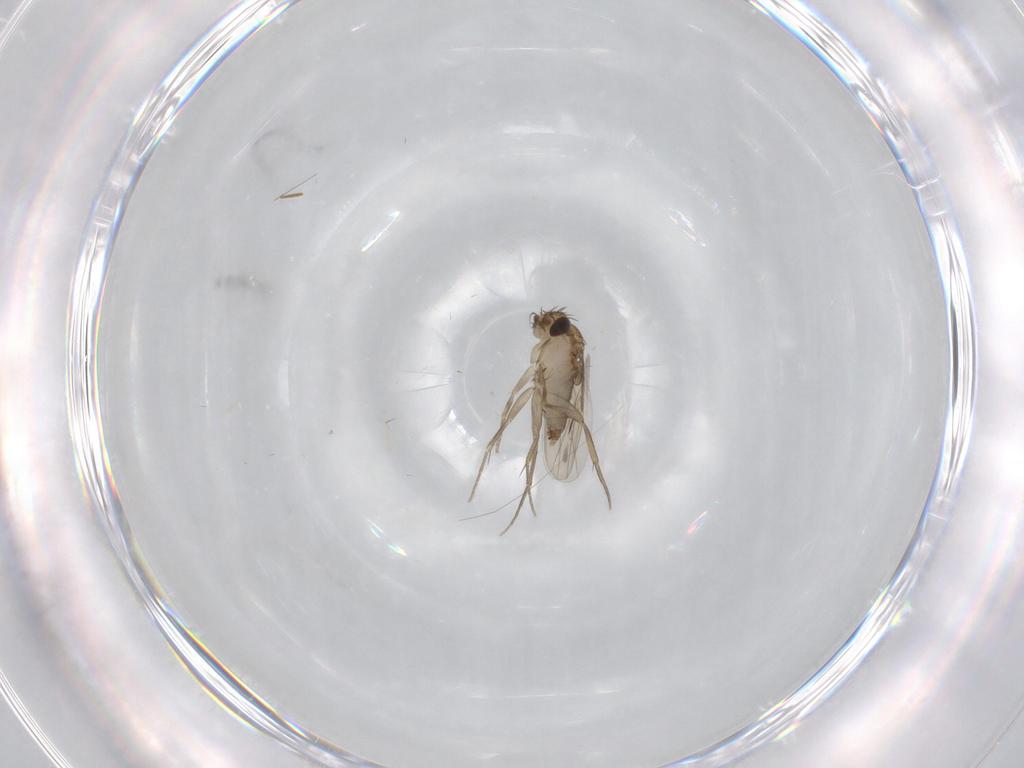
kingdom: Animalia
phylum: Arthropoda
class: Insecta
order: Diptera
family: Phoridae
